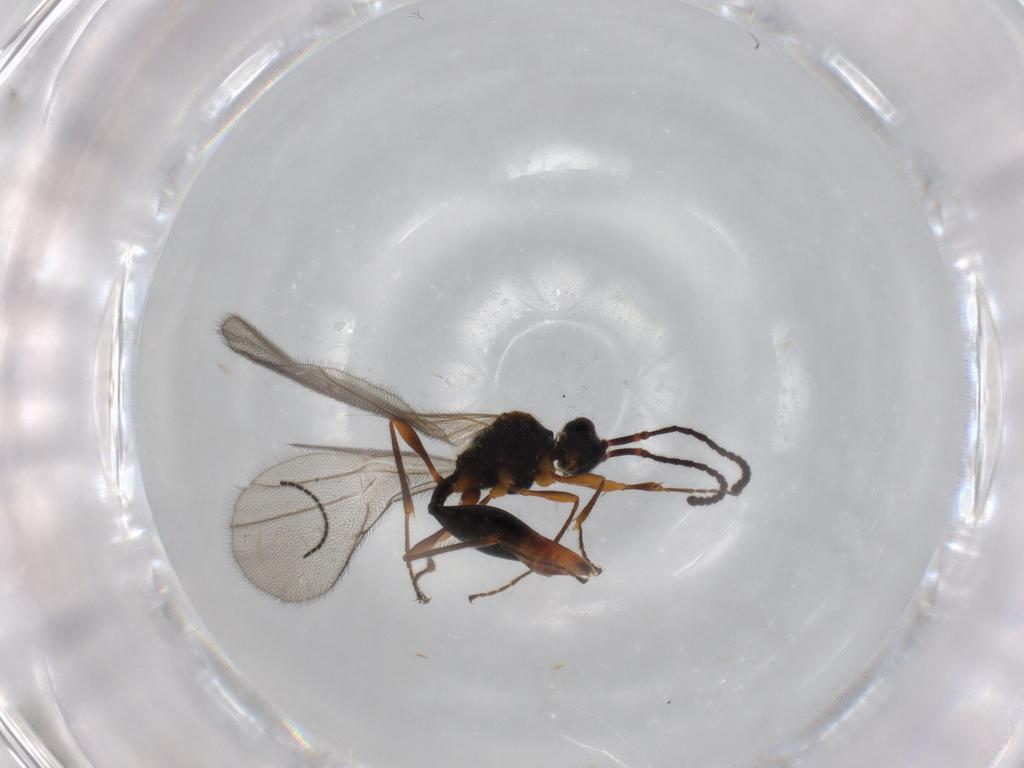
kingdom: Animalia
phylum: Arthropoda
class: Insecta
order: Hymenoptera
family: Diapriidae
